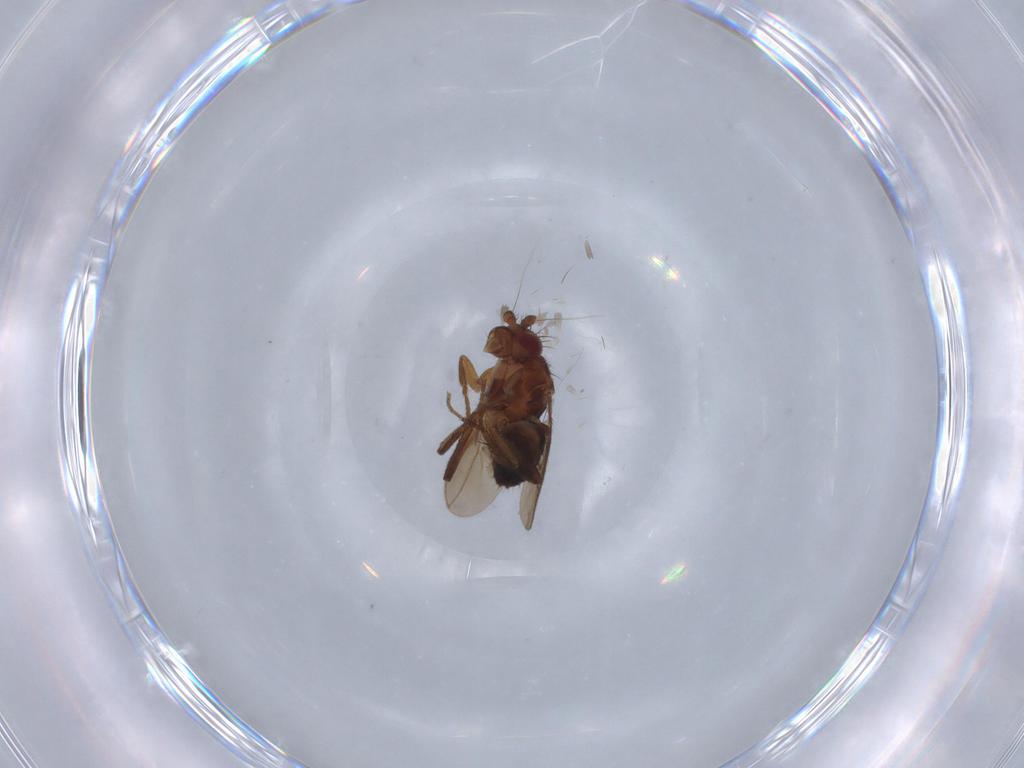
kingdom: Animalia
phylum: Arthropoda
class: Insecta
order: Diptera
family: Sphaeroceridae
